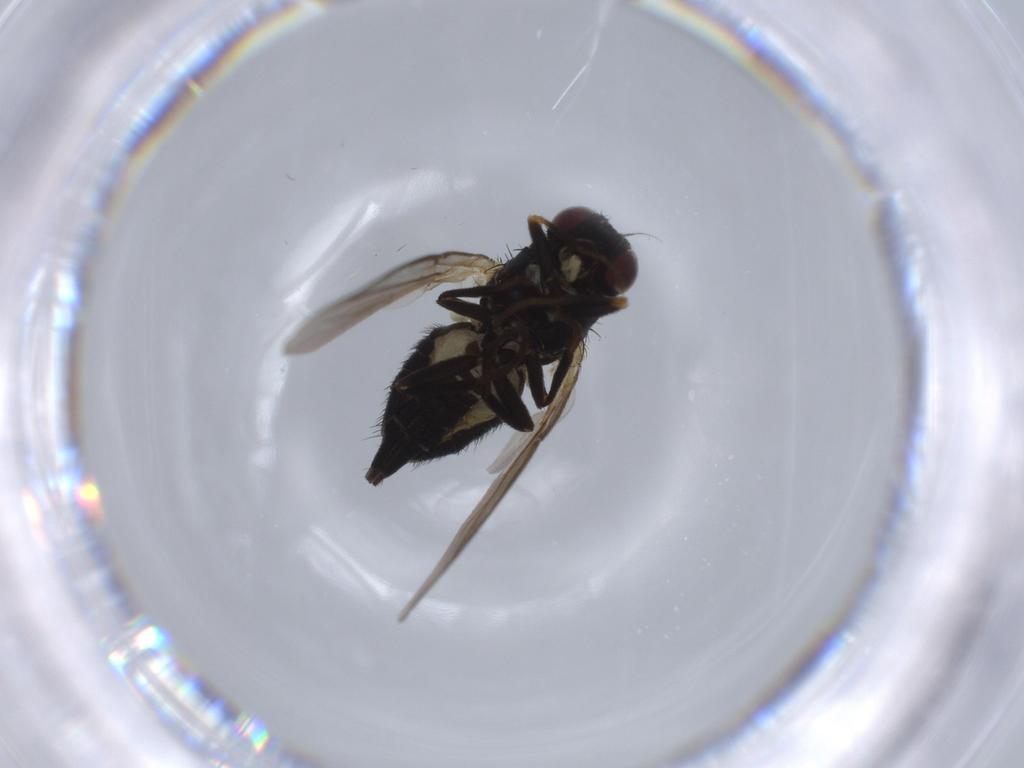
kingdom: Animalia
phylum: Arthropoda
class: Insecta
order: Diptera
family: Agromyzidae
